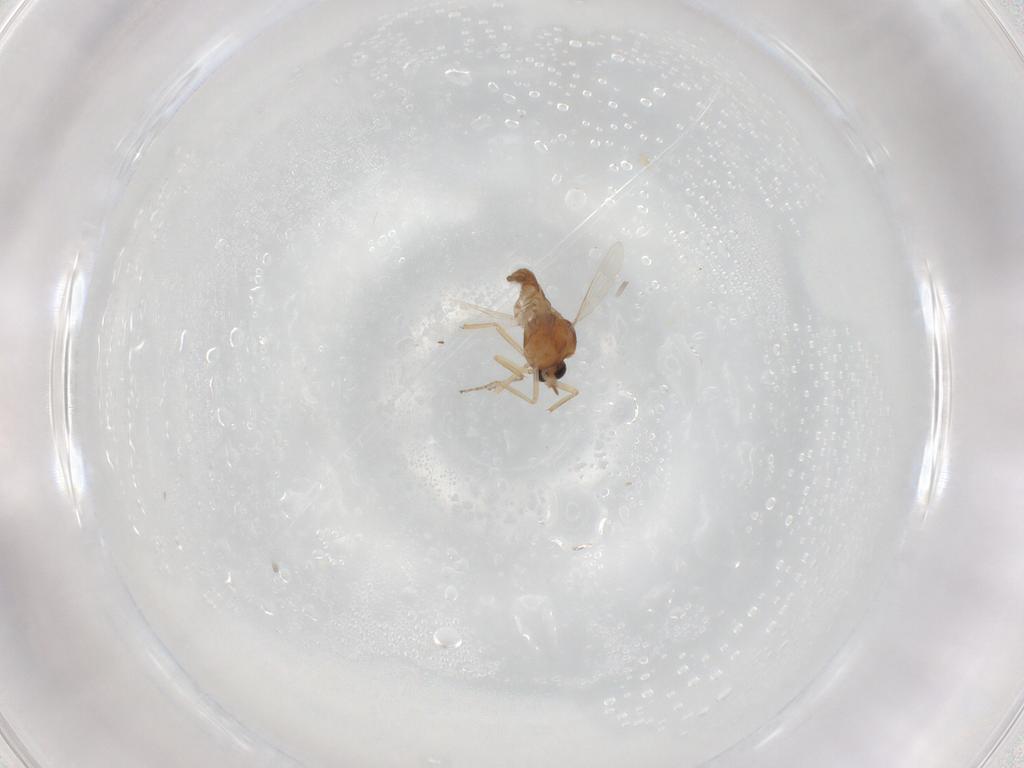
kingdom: Animalia
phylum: Arthropoda
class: Insecta
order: Diptera
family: Ceratopogonidae
